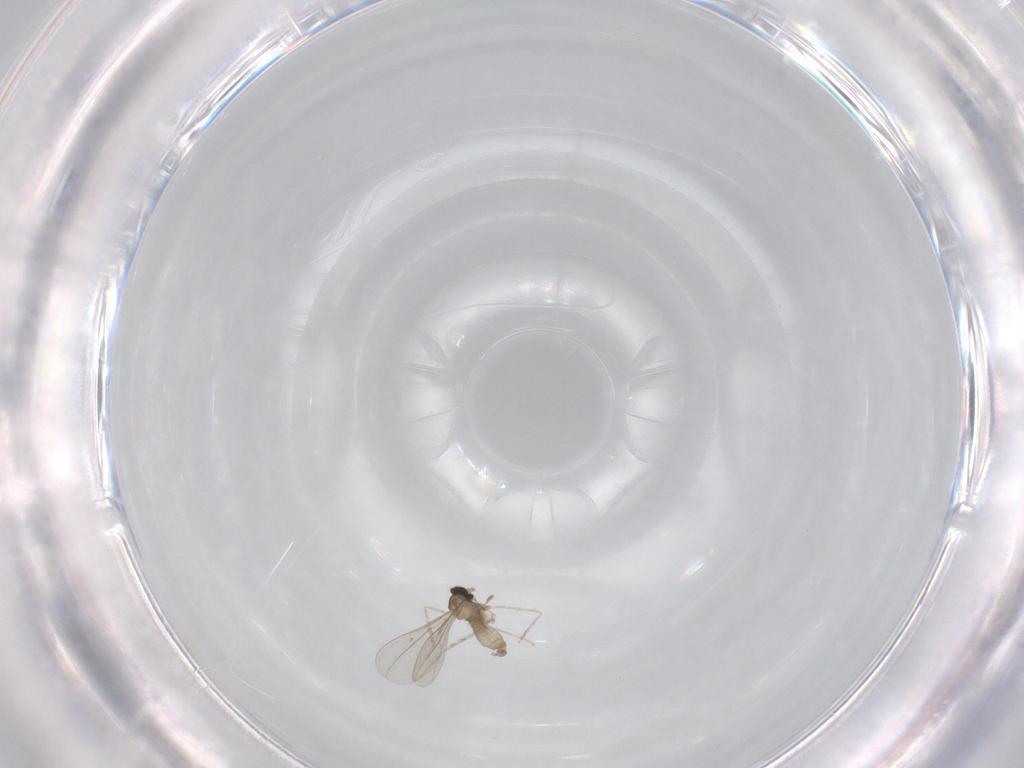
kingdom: Animalia
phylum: Arthropoda
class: Insecta
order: Diptera
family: Cecidomyiidae
